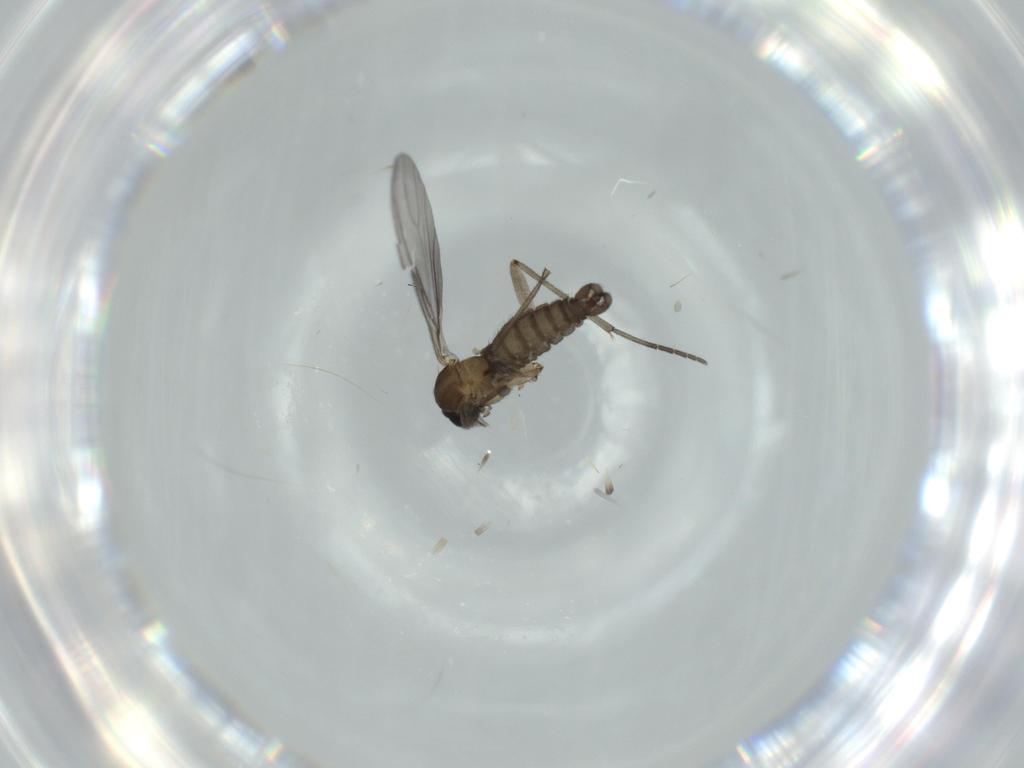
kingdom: Animalia
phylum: Arthropoda
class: Insecta
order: Diptera
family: Sciaridae
